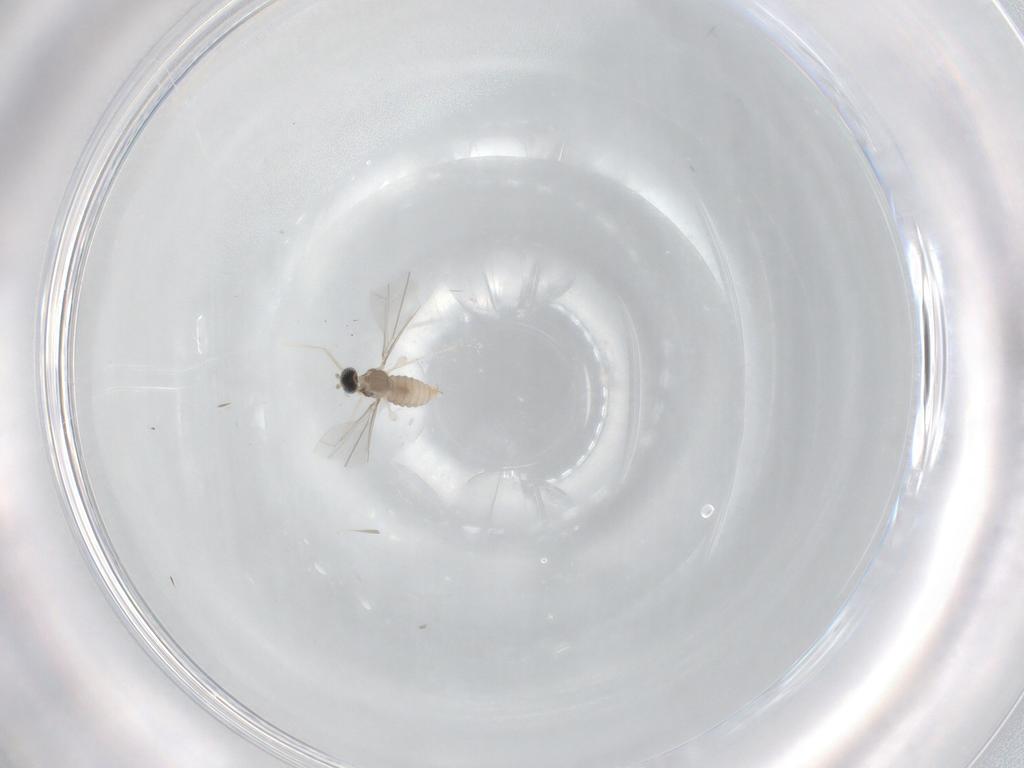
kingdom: Animalia
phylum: Arthropoda
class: Insecta
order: Diptera
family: Cecidomyiidae
